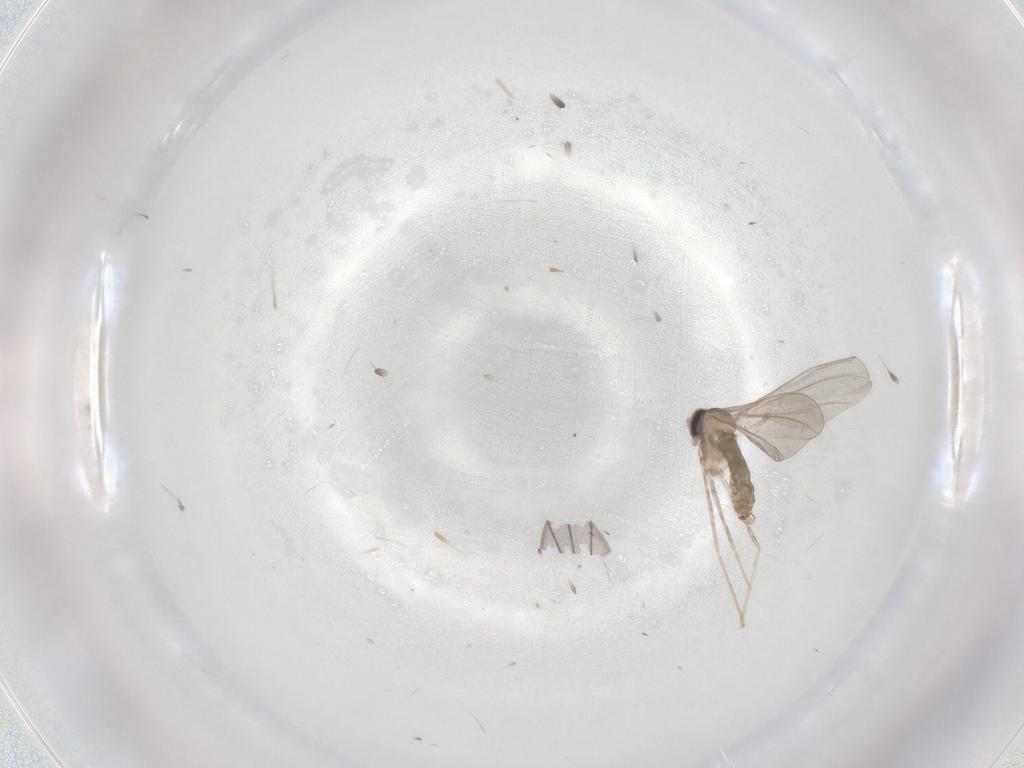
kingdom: Animalia
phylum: Arthropoda
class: Insecta
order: Diptera
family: Cecidomyiidae
